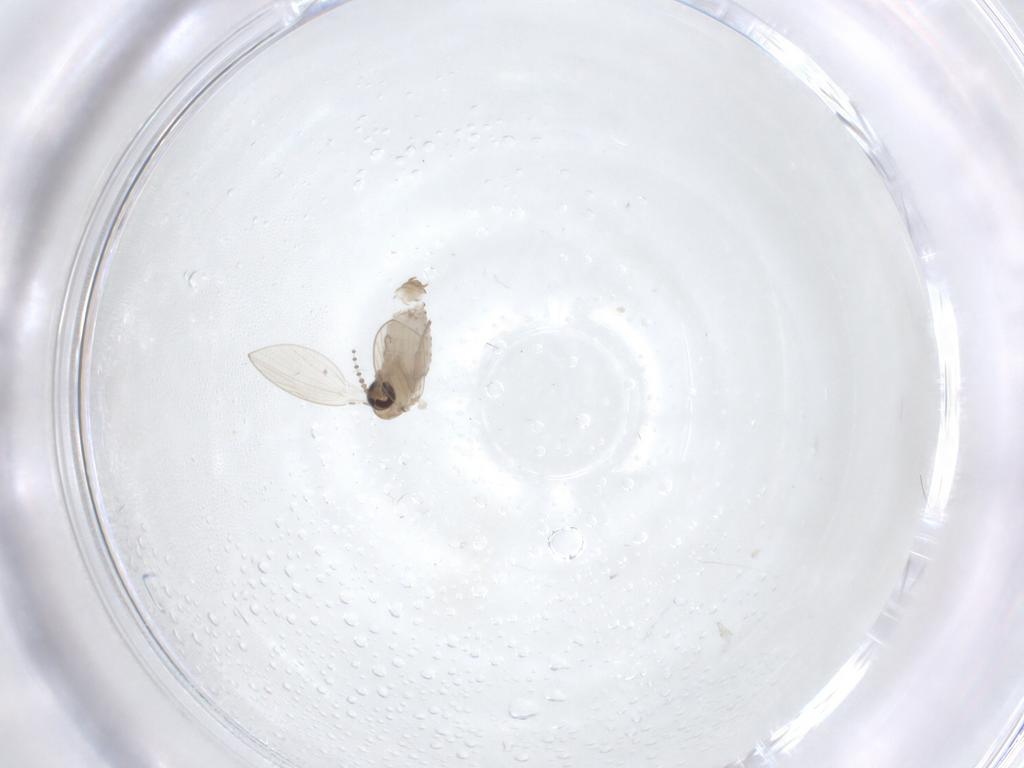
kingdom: Animalia
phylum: Arthropoda
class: Insecta
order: Diptera
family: Psychodidae
